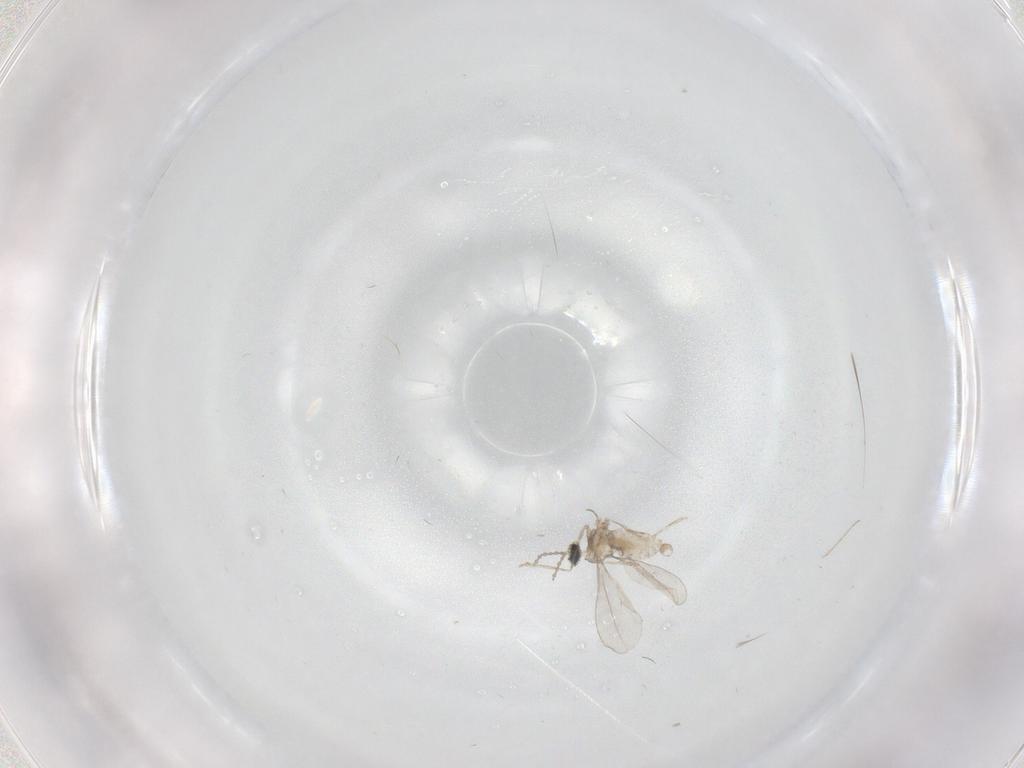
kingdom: Animalia
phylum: Arthropoda
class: Insecta
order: Diptera
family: Cecidomyiidae
